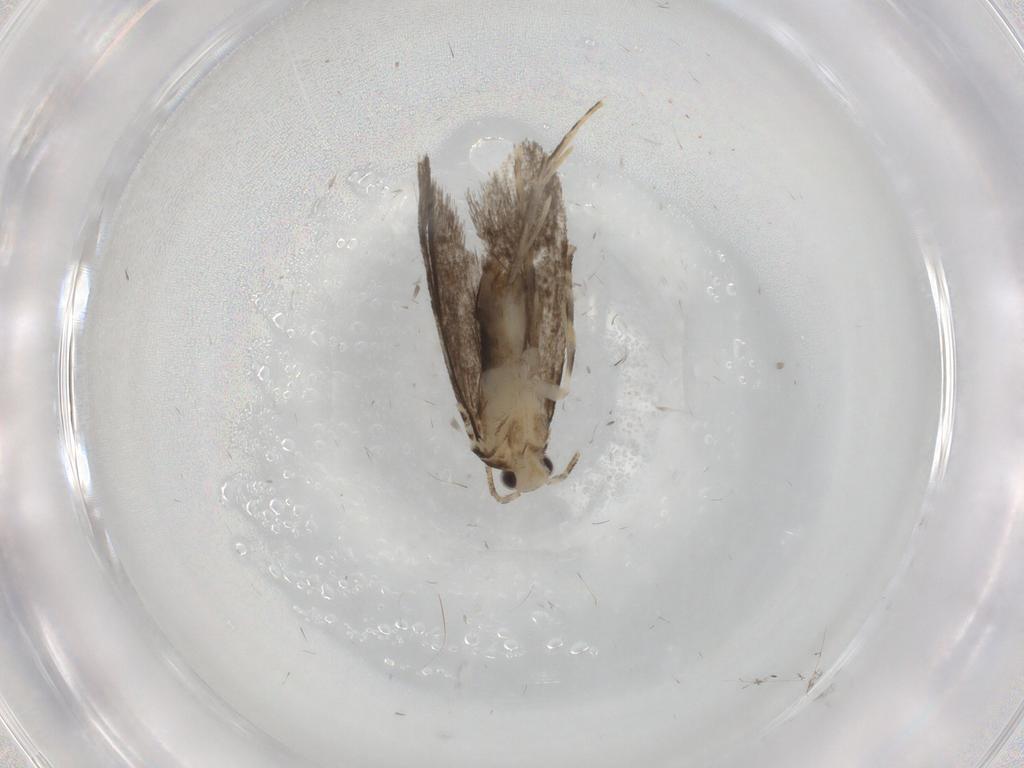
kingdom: Animalia
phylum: Arthropoda
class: Insecta
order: Lepidoptera
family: Tineidae
